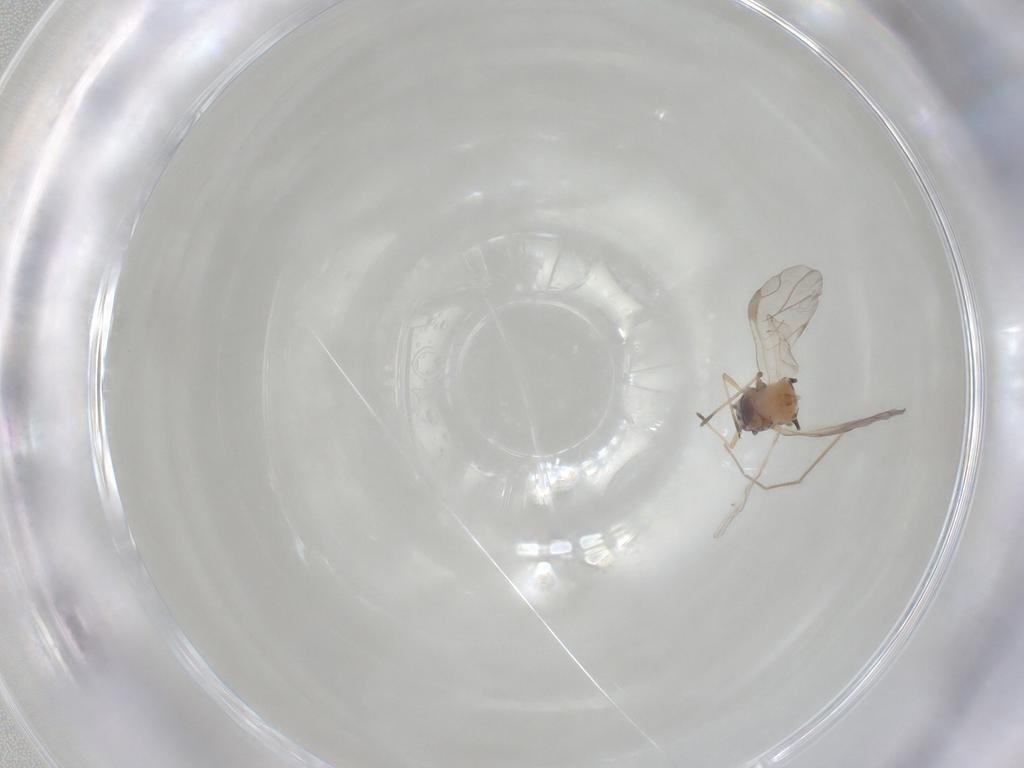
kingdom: Animalia
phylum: Arthropoda
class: Insecta
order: Hemiptera
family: Aphididae
